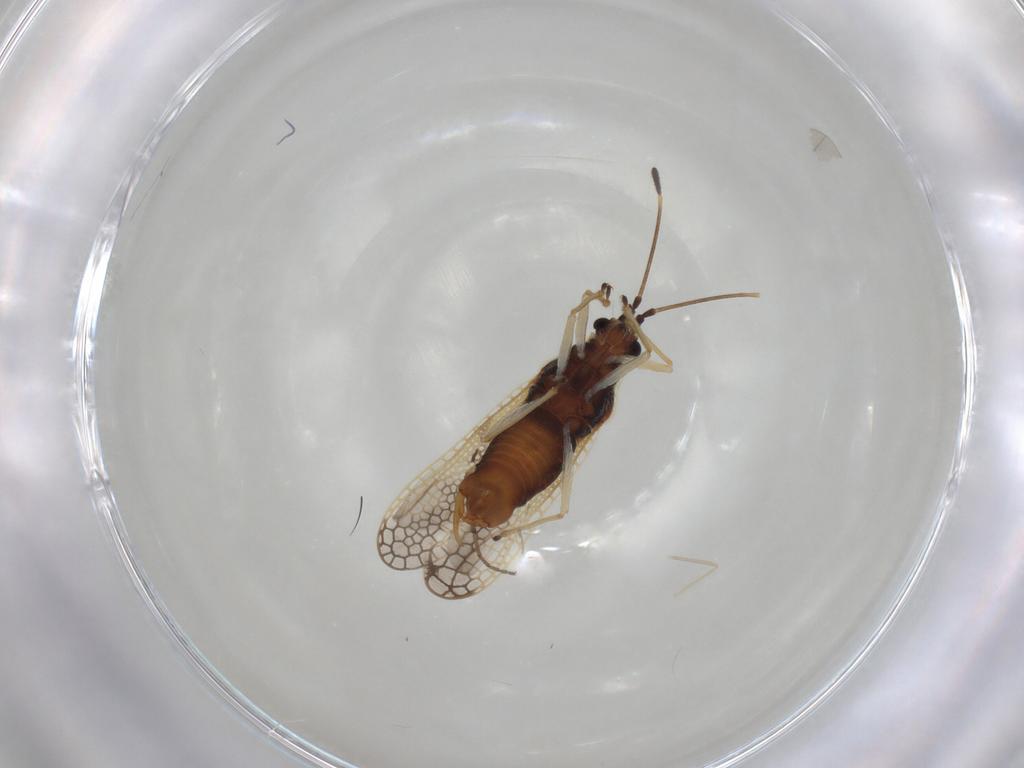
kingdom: Animalia
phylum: Arthropoda
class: Insecta
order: Hemiptera
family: Tingidae
